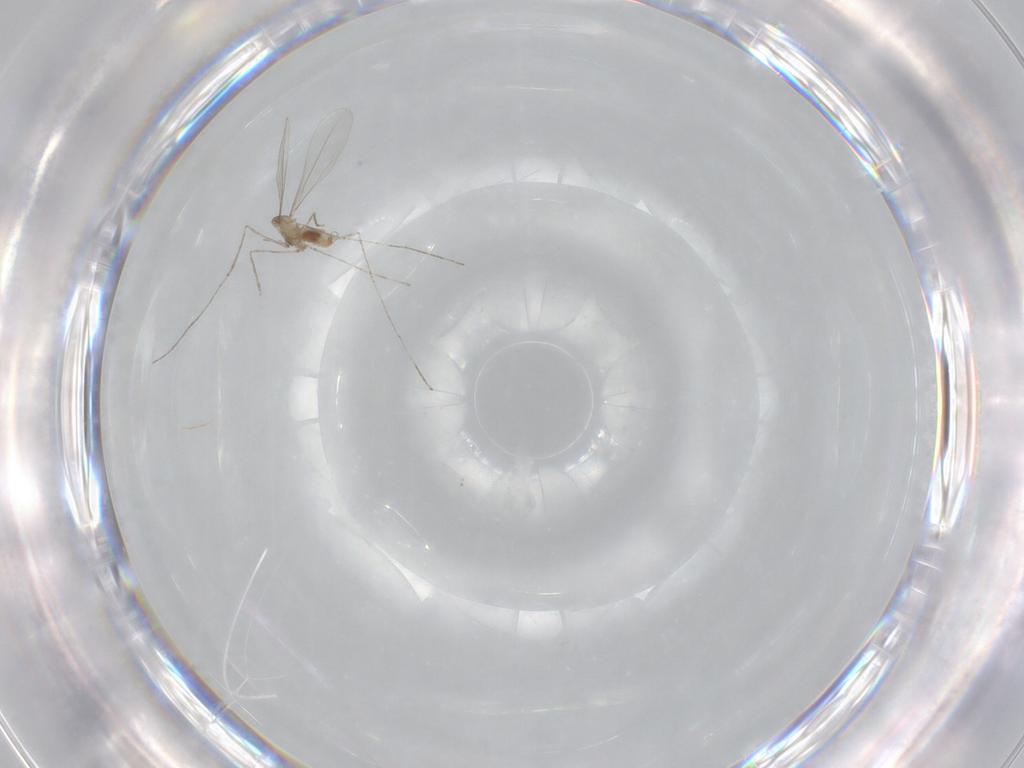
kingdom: Animalia
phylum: Arthropoda
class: Insecta
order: Diptera
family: Cecidomyiidae
